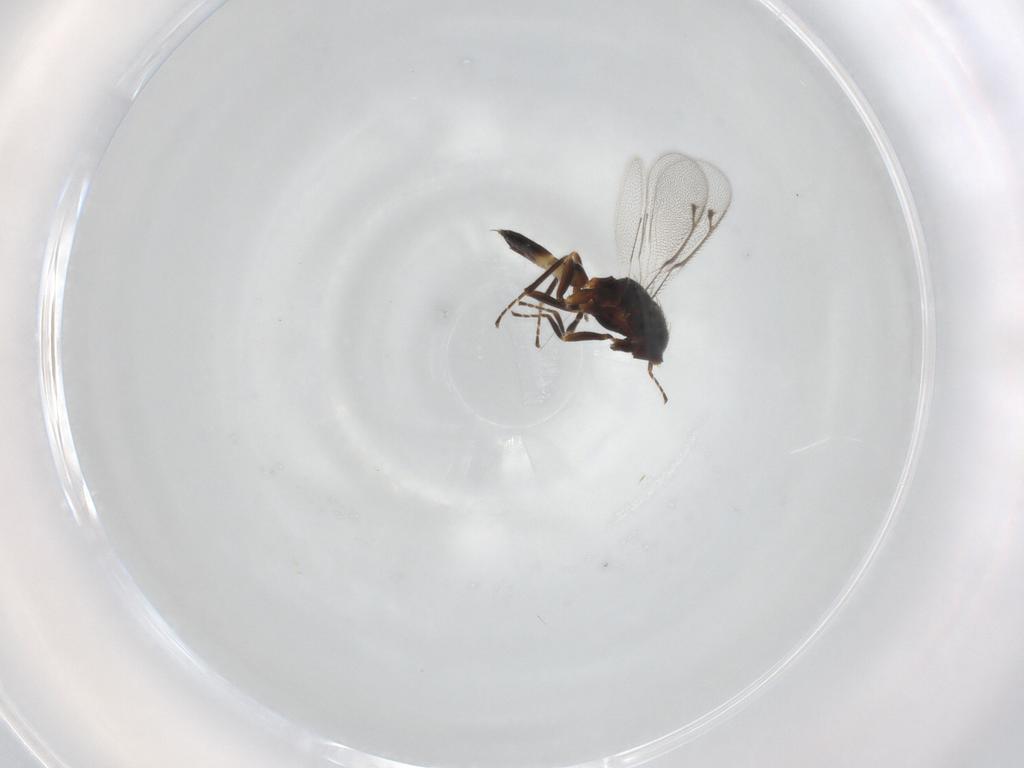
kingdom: Animalia
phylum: Arthropoda
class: Insecta
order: Hymenoptera
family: Eulophidae
